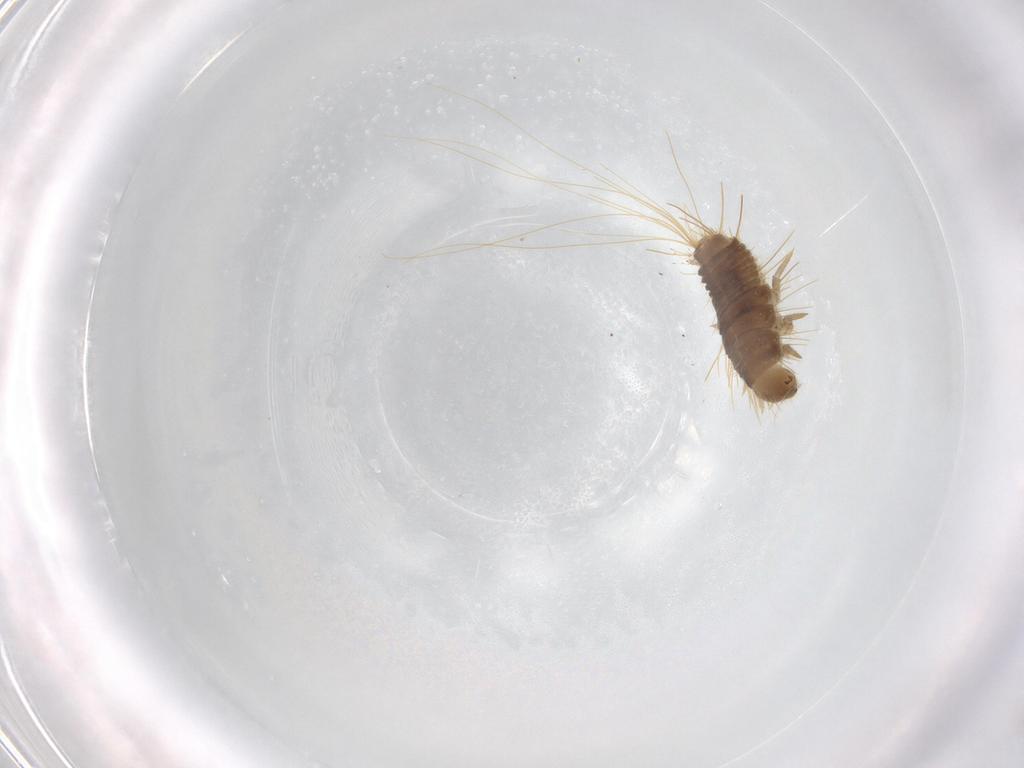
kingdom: Animalia
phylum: Arthropoda
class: Insecta
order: Coleoptera
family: Dermestidae
